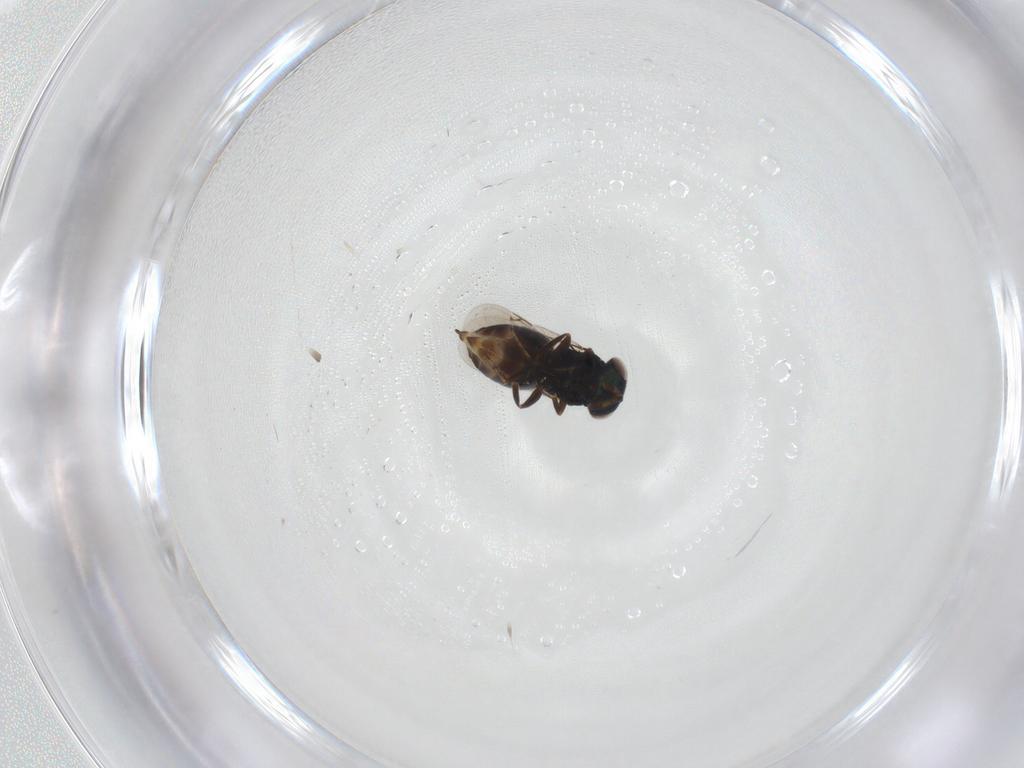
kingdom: Animalia
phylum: Arthropoda
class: Insecta
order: Hymenoptera
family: Eunotidae
